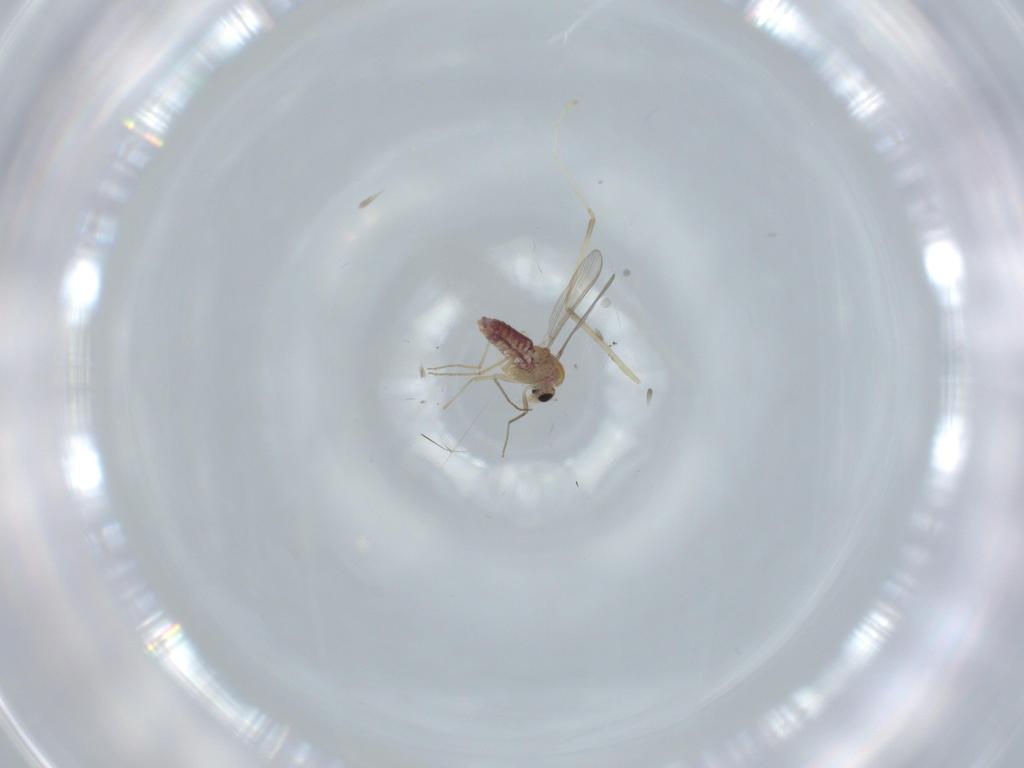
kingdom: Animalia
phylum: Arthropoda
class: Insecta
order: Diptera
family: Chironomidae
